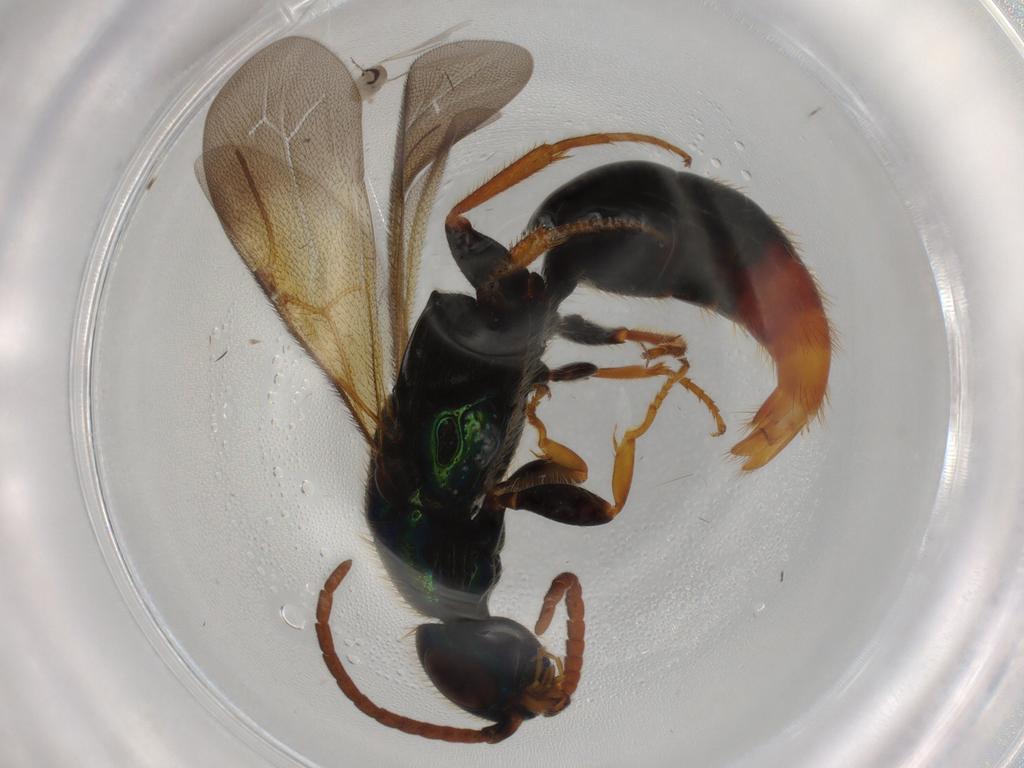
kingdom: Animalia
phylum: Arthropoda
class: Insecta
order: Hymenoptera
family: Bethylidae
